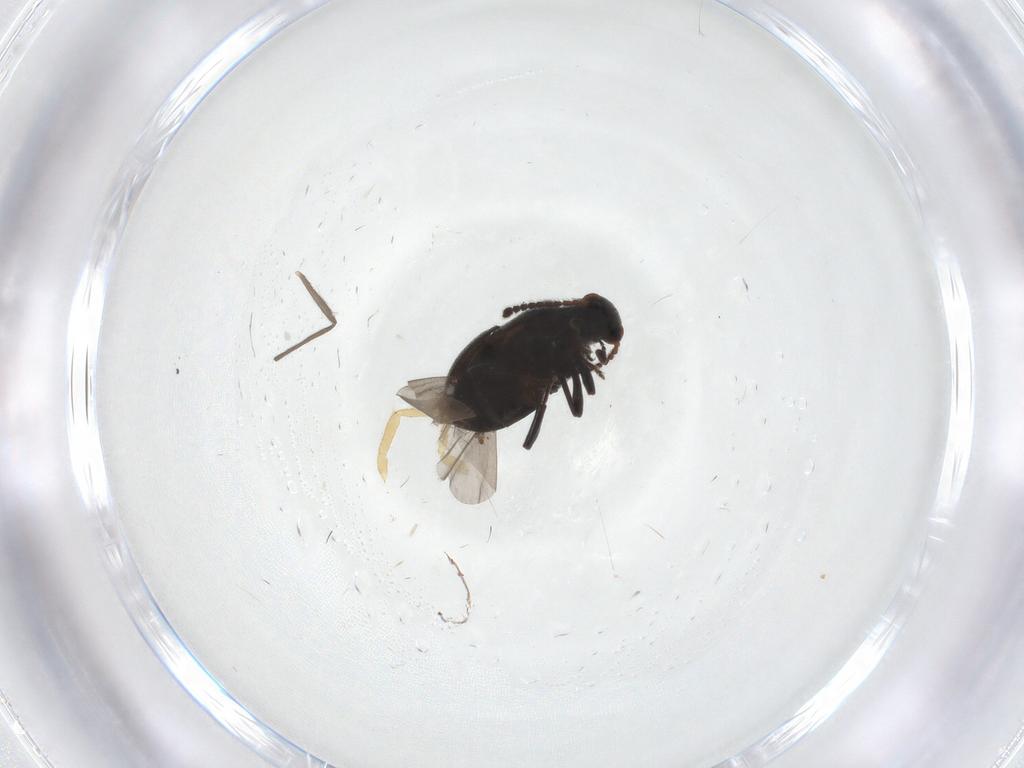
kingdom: Animalia
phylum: Arthropoda
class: Insecta
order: Coleoptera
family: Aderidae
